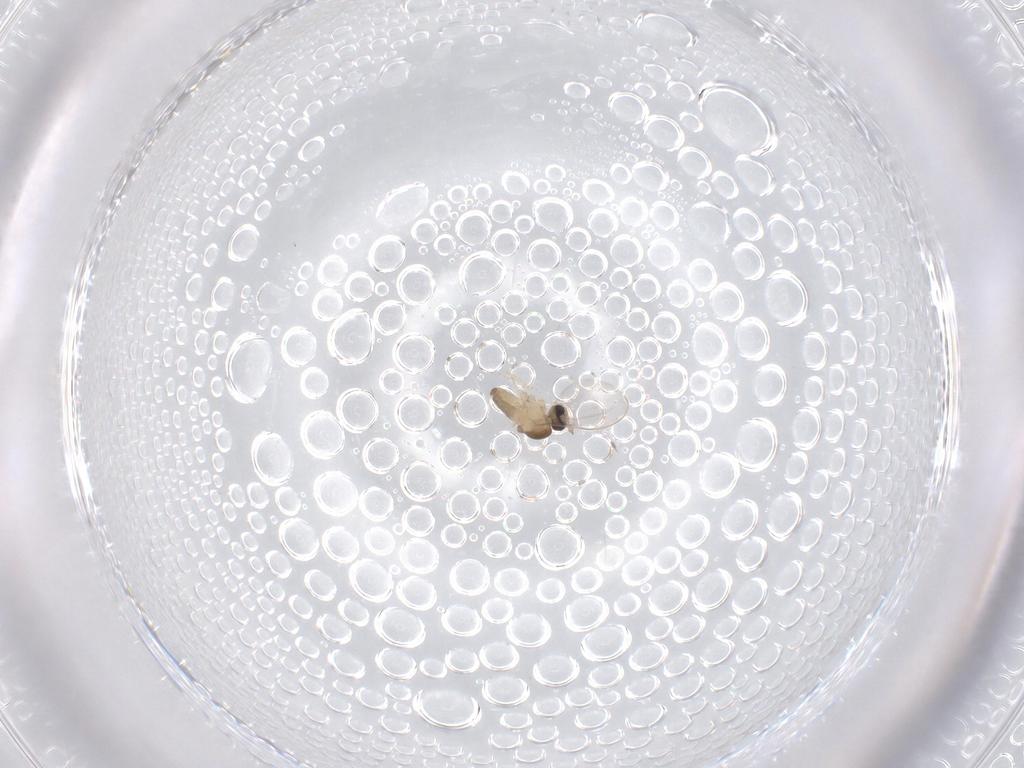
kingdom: Animalia
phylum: Arthropoda
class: Insecta
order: Diptera
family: Cecidomyiidae
